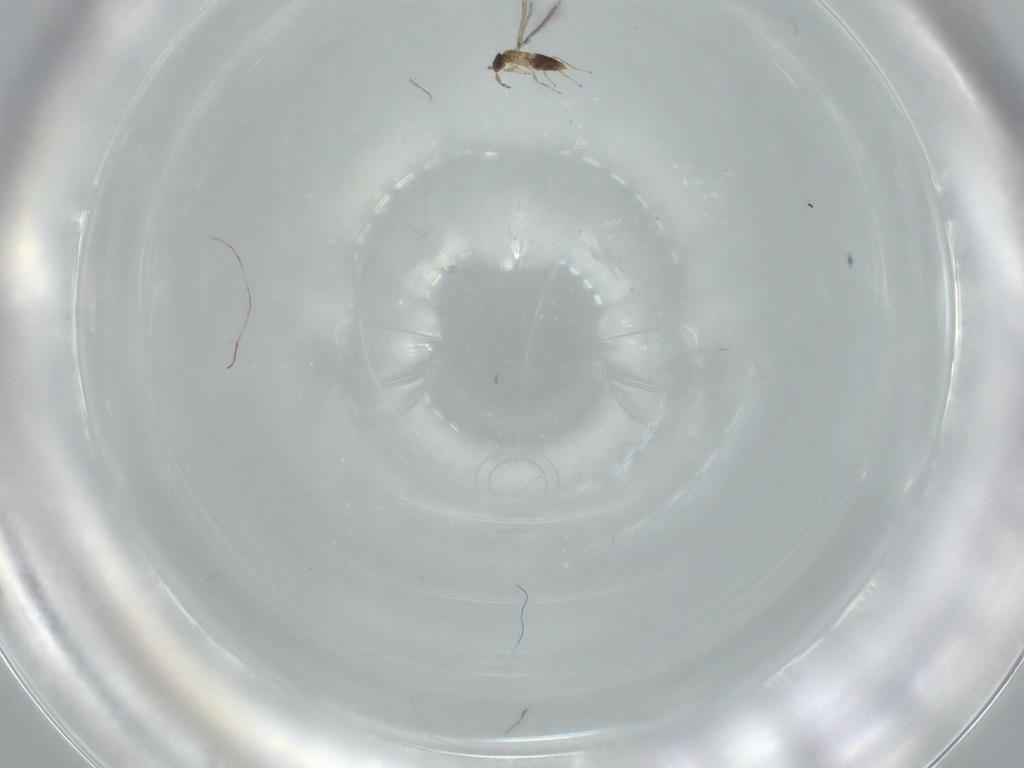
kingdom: Animalia
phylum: Arthropoda
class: Insecta
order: Hymenoptera
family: Mymaridae
